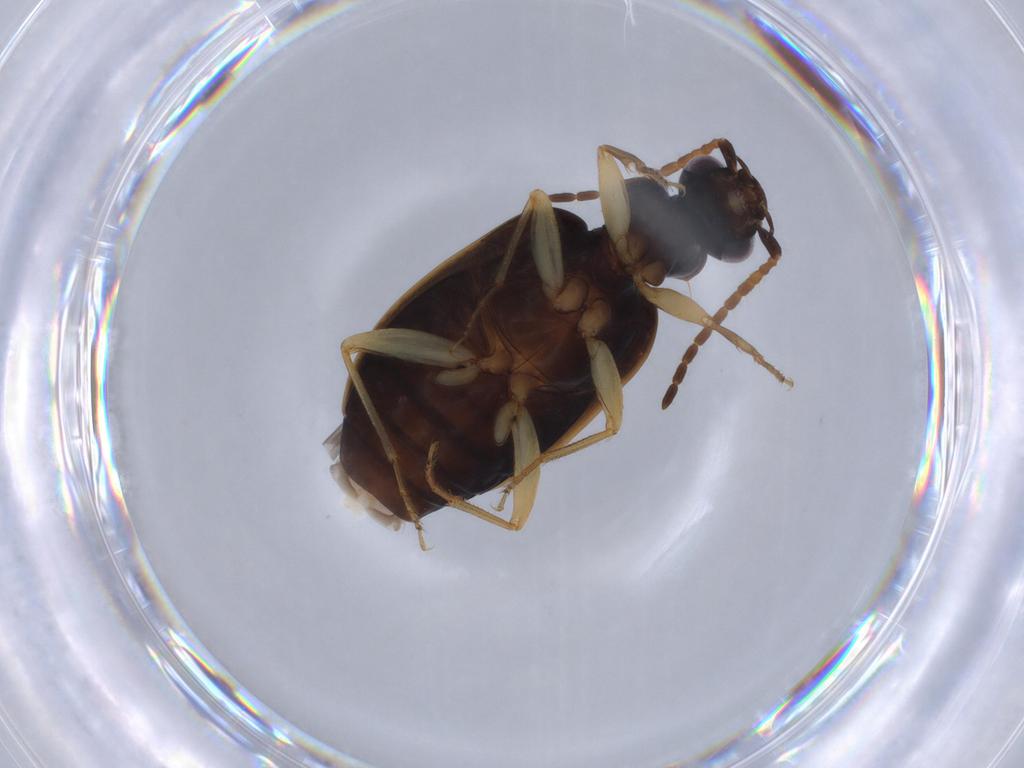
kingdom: Animalia
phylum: Arthropoda
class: Insecta
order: Coleoptera
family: Carabidae
